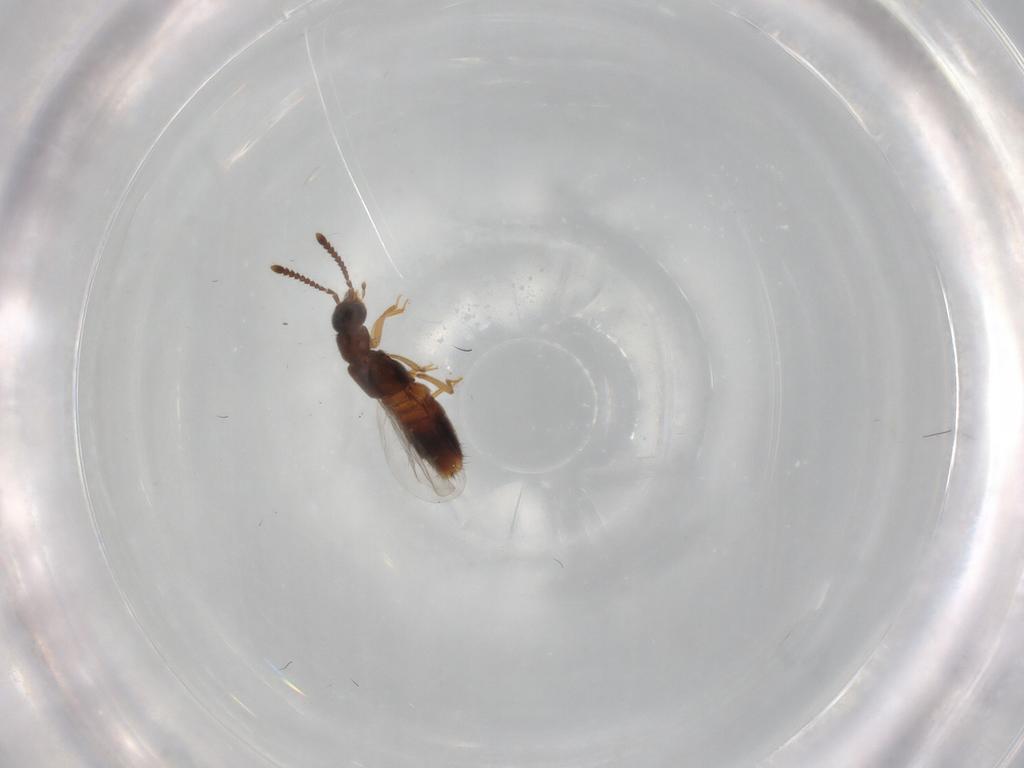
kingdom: Animalia
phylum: Arthropoda
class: Insecta
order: Coleoptera
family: Staphylinidae
